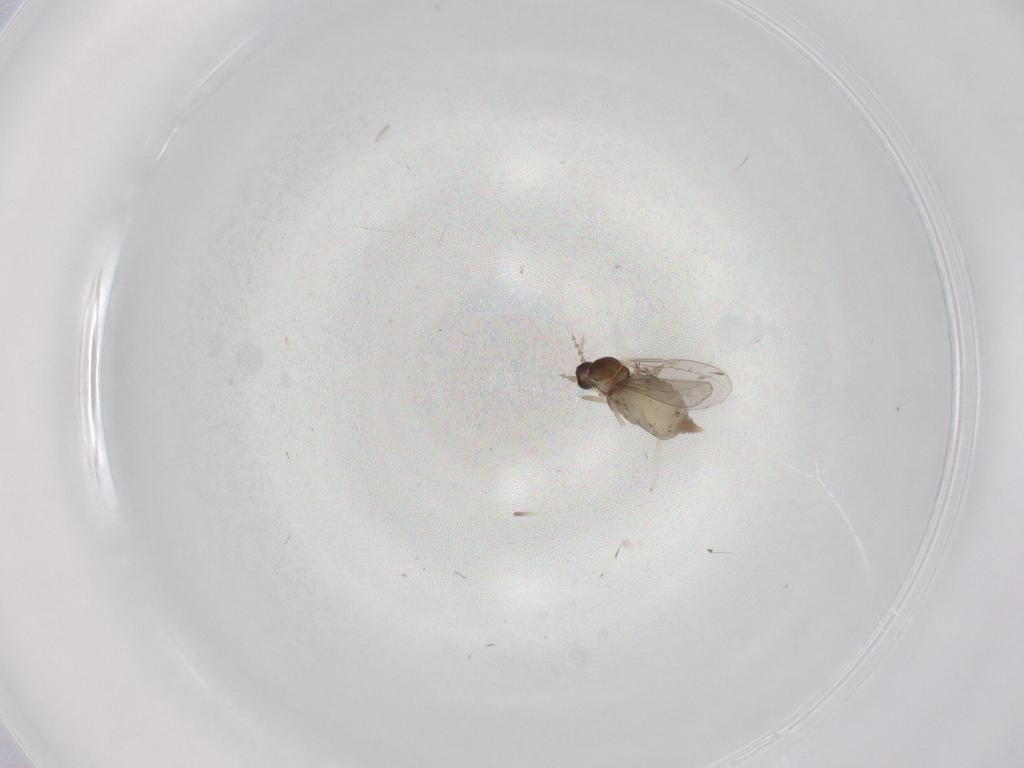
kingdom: Animalia
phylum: Arthropoda
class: Insecta
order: Diptera
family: Cecidomyiidae
